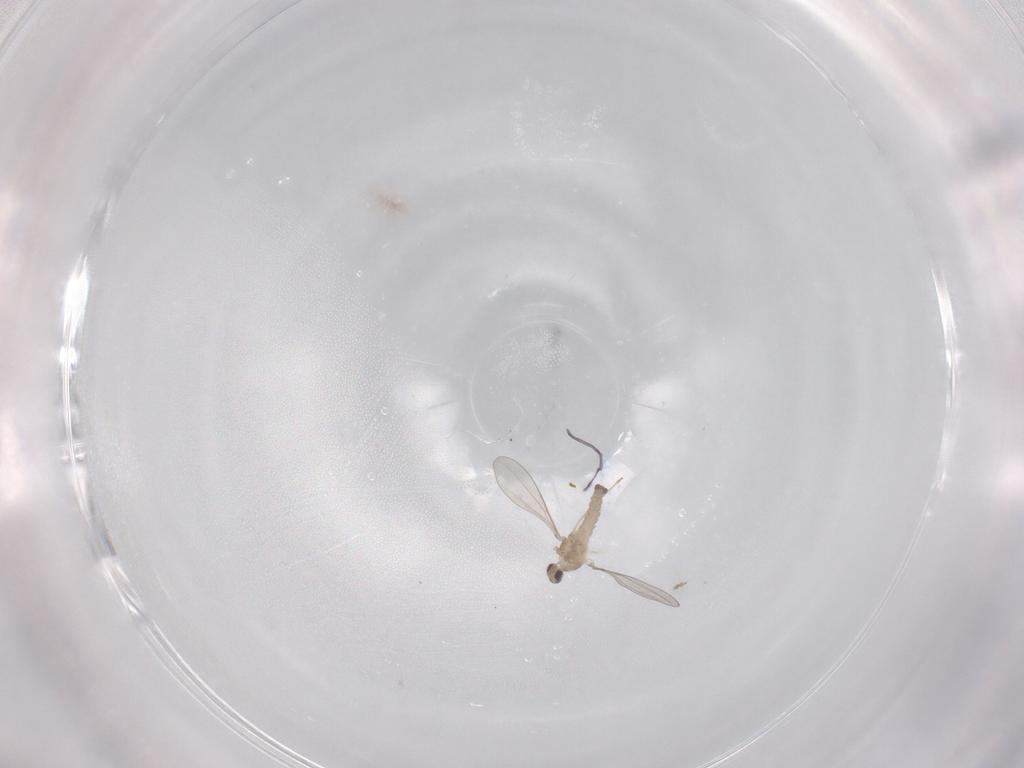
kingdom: Animalia
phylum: Arthropoda
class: Insecta
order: Diptera
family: Cecidomyiidae
